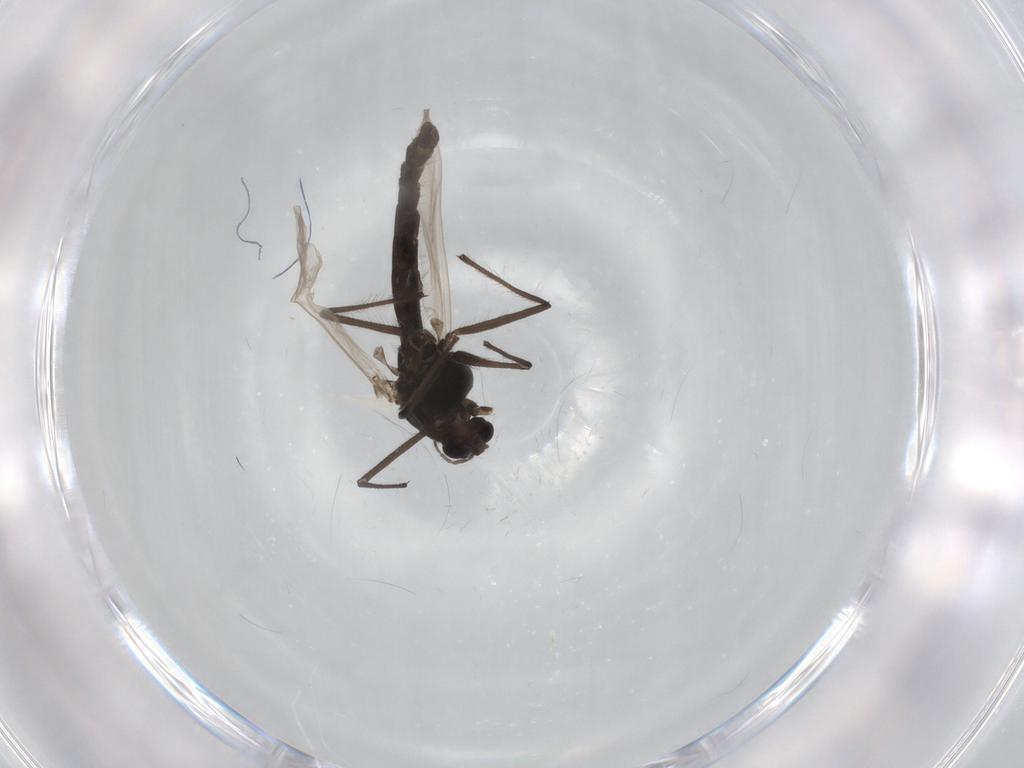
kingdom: Animalia
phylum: Arthropoda
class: Insecta
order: Diptera
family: Chironomidae
